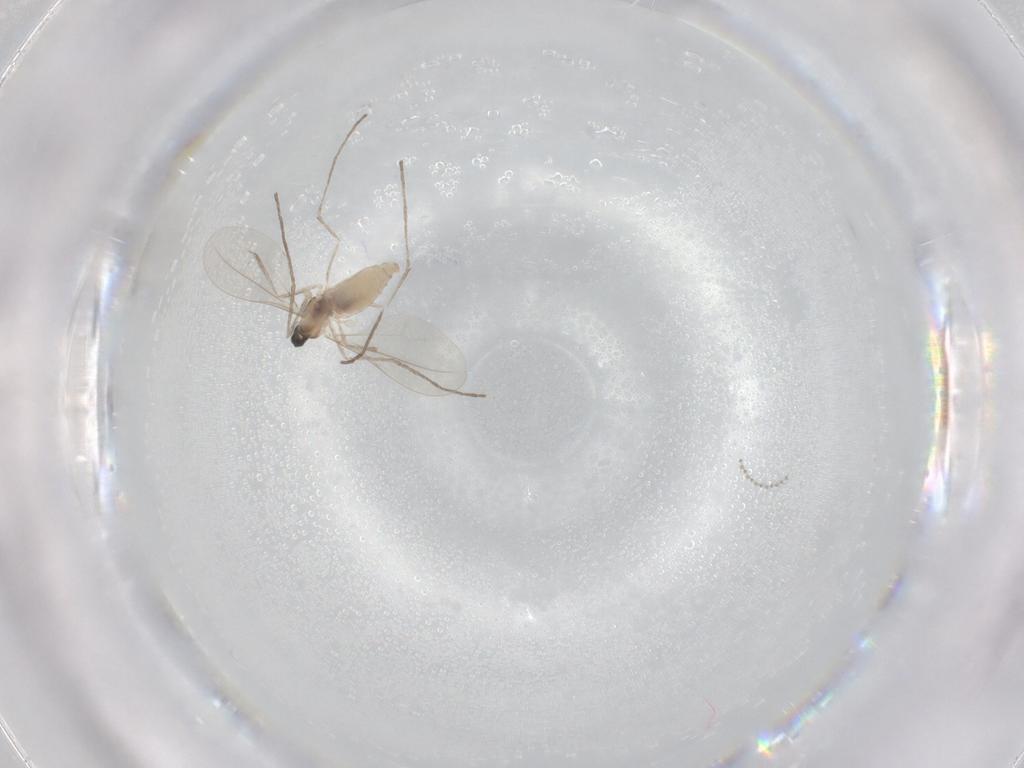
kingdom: Animalia
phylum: Arthropoda
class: Insecta
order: Diptera
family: Cecidomyiidae
